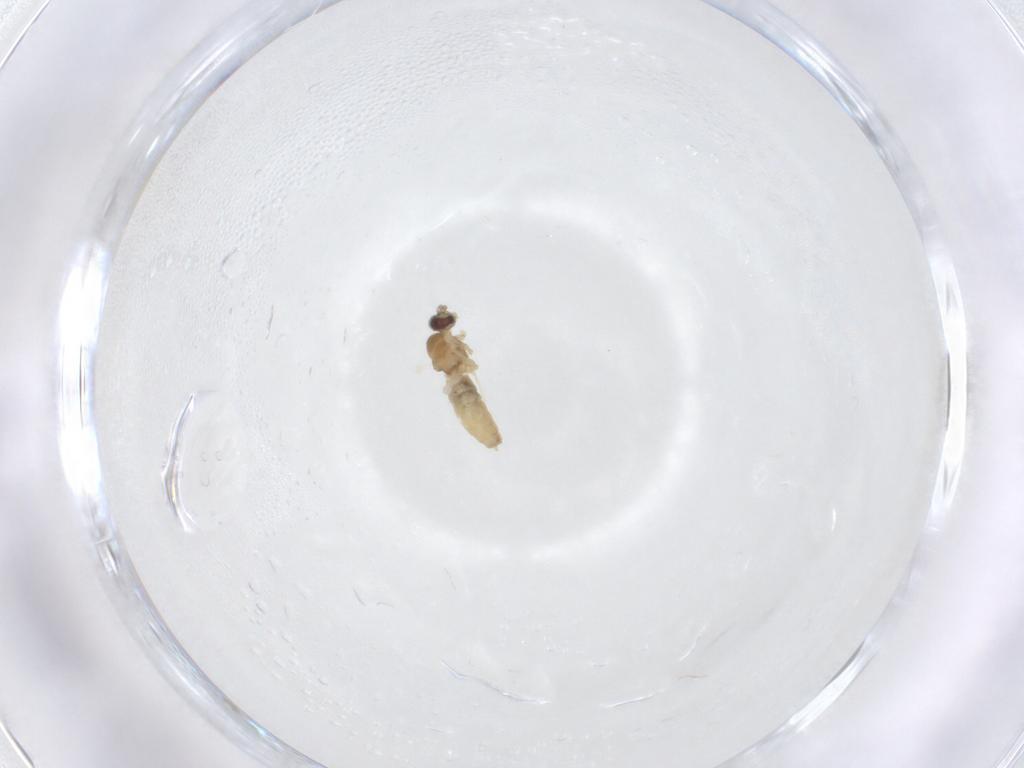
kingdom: Animalia
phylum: Arthropoda
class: Insecta
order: Diptera
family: Cecidomyiidae
